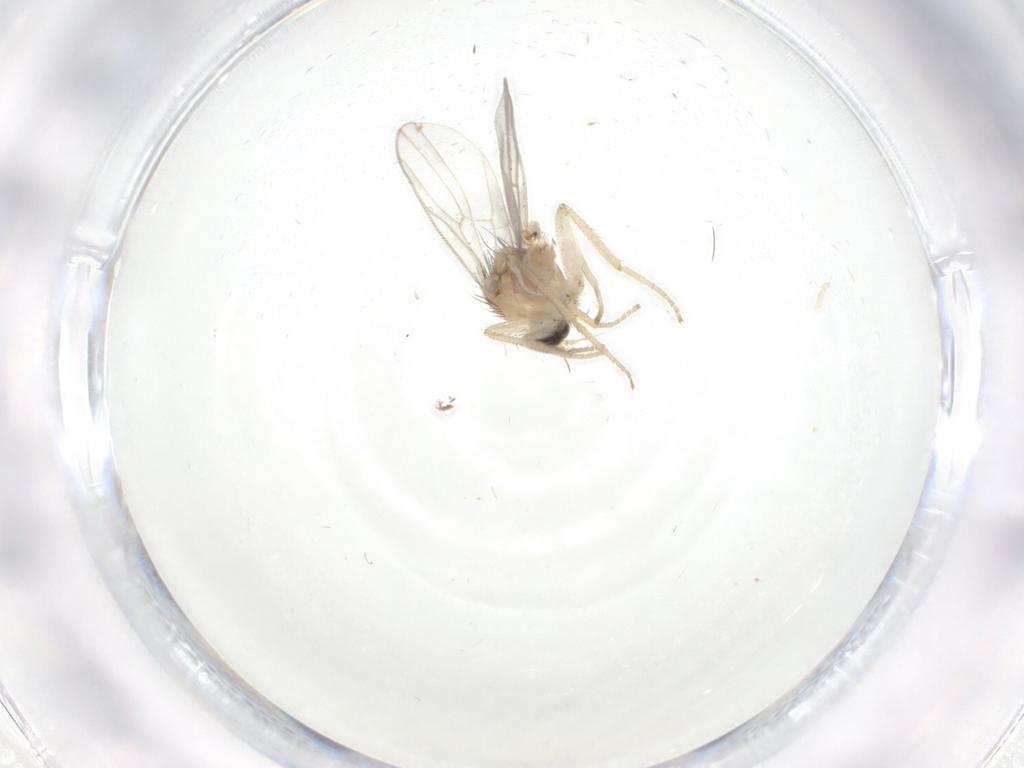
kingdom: Animalia
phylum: Arthropoda
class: Insecta
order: Diptera
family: Hybotidae
